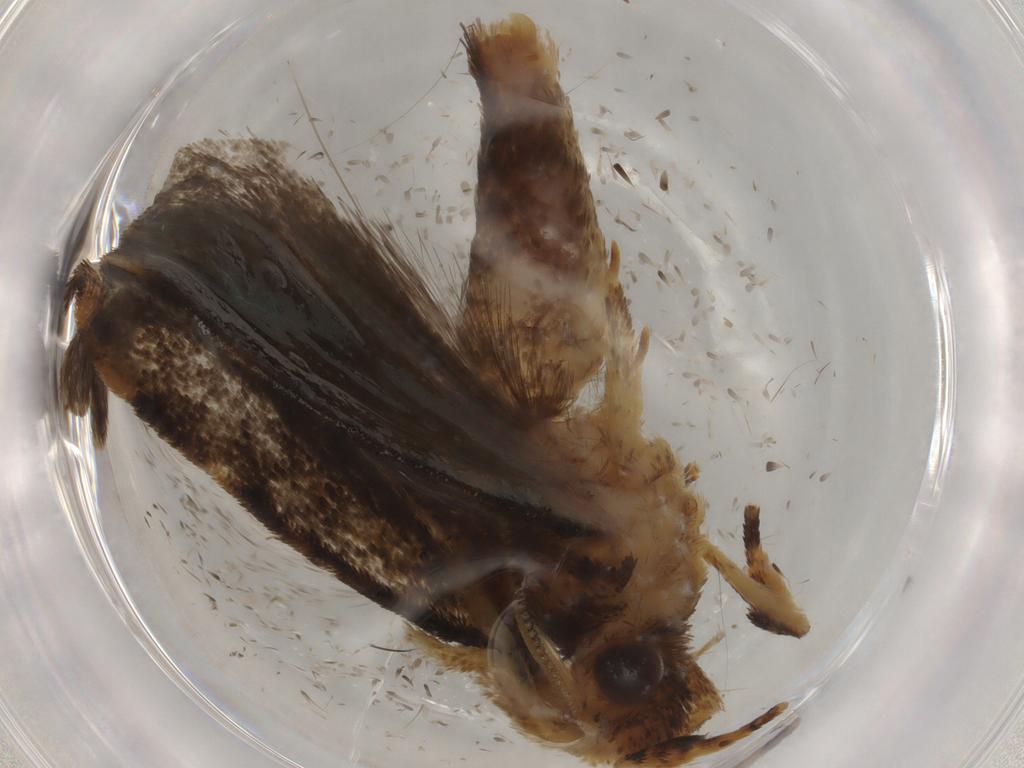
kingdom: Animalia
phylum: Arthropoda
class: Insecta
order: Lepidoptera
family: Tineidae
